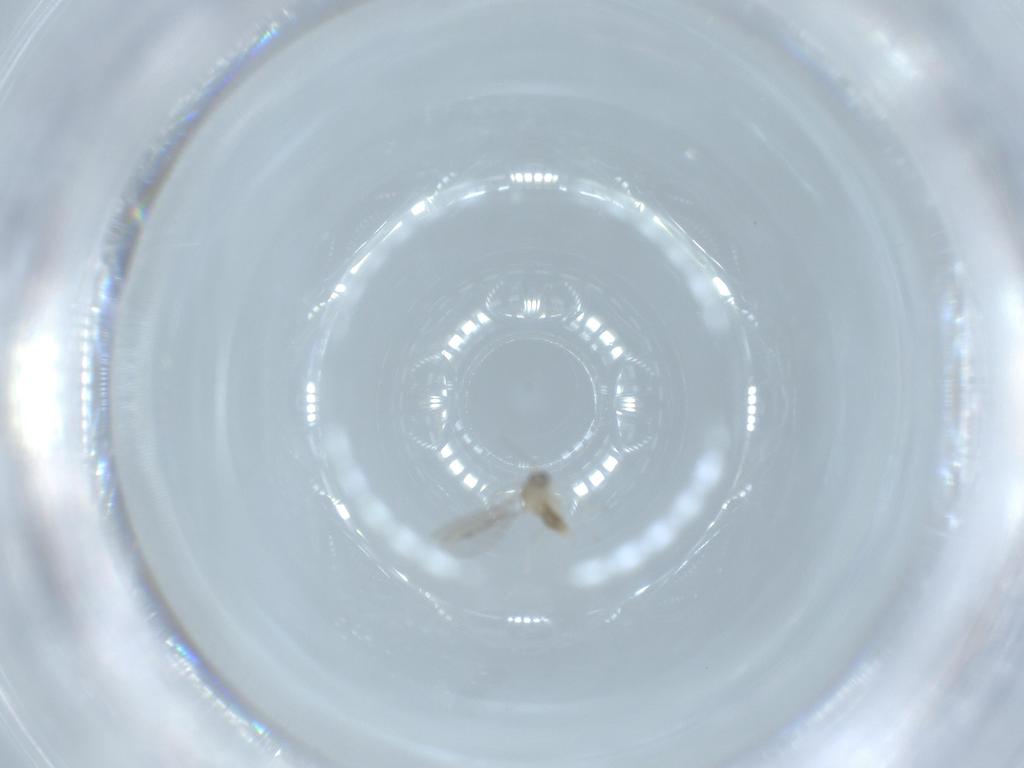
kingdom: Animalia
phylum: Arthropoda
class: Insecta
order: Diptera
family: Cecidomyiidae
